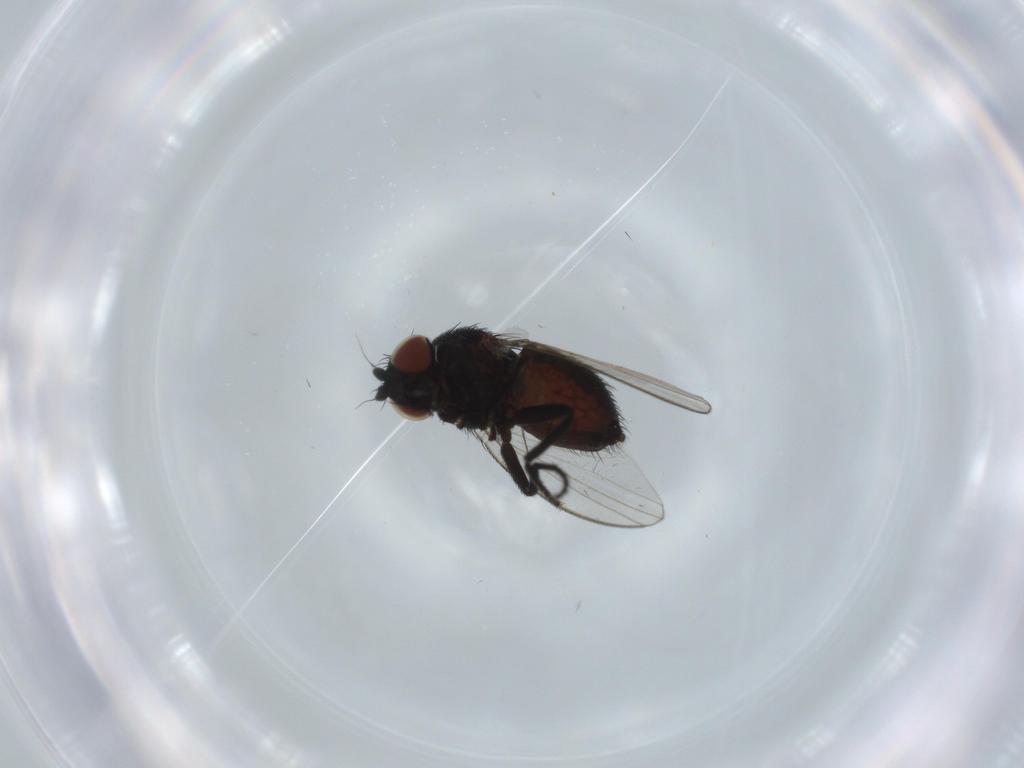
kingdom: Animalia
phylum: Arthropoda
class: Insecta
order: Diptera
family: Milichiidae
